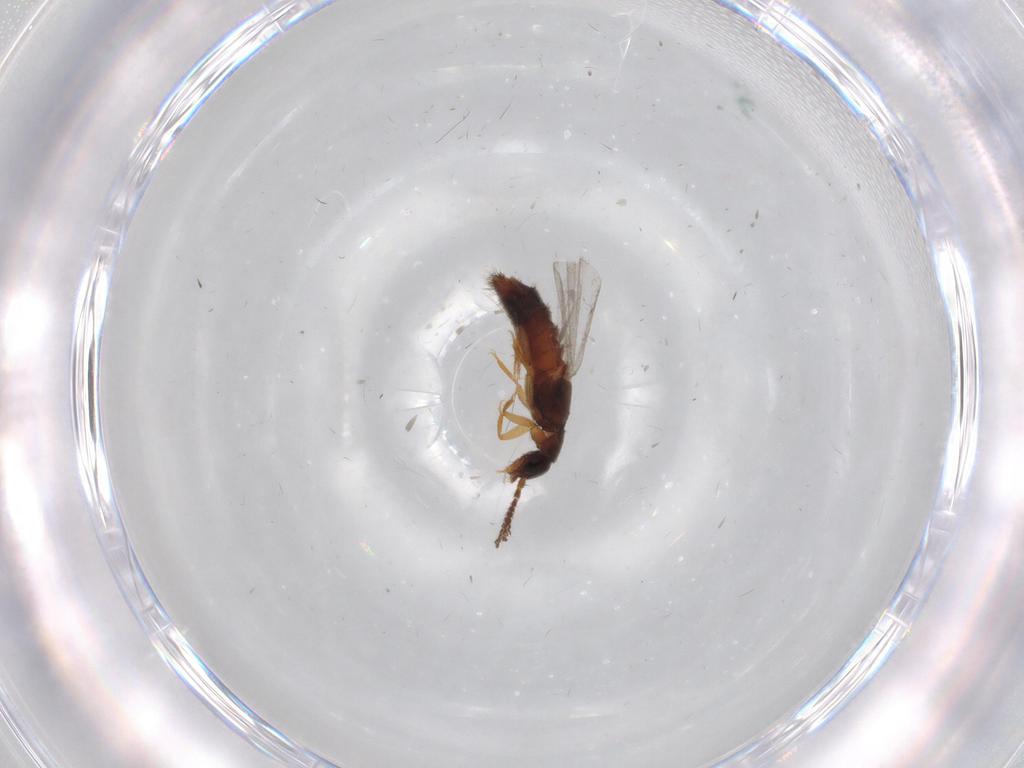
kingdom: Animalia
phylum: Arthropoda
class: Insecta
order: Coleoptera
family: Staphylinidae
